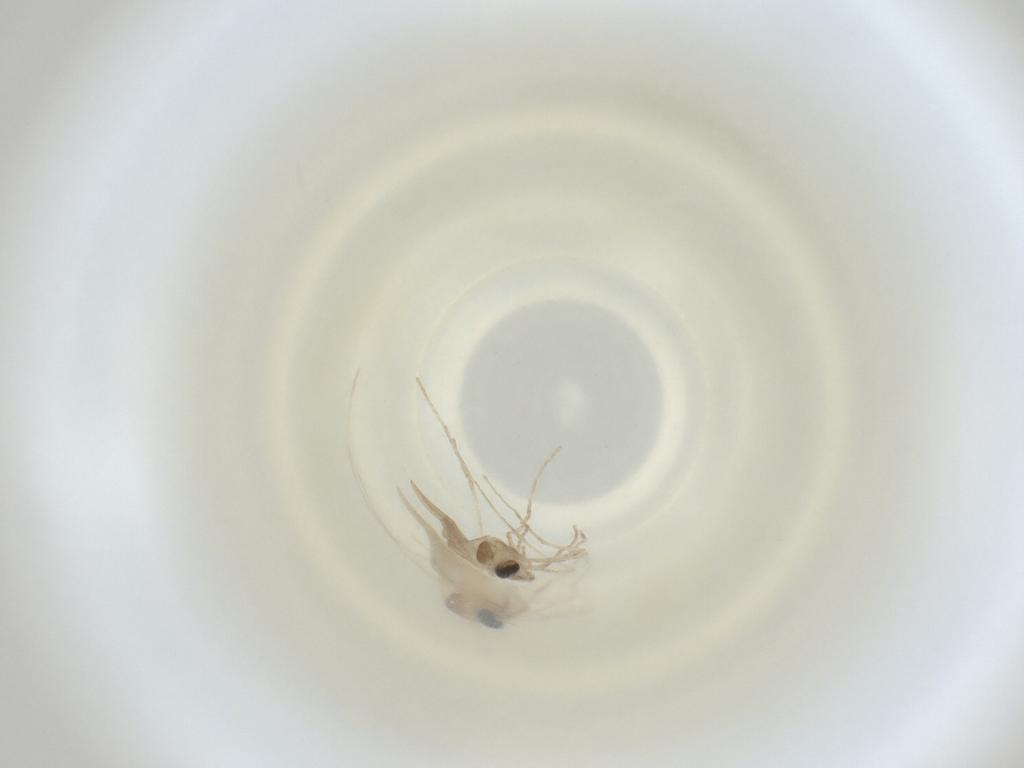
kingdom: Animalia
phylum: Arthropoda
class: Insecta
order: Diptera
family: Cecidomyiidae
